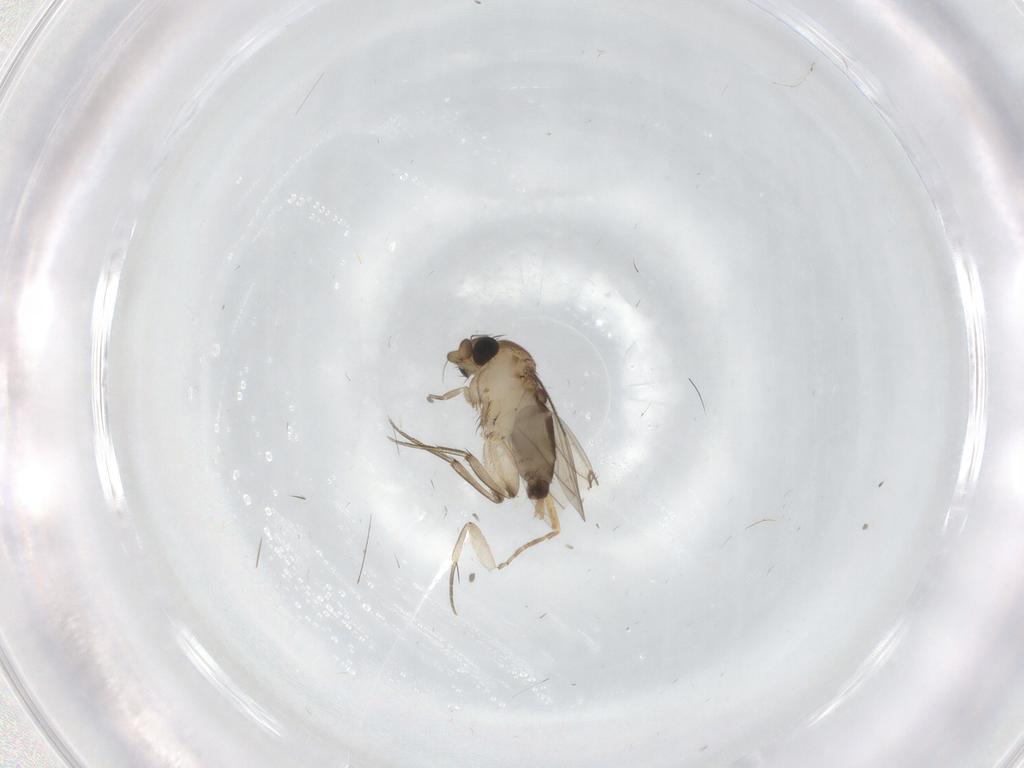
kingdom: Animalia
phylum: Arthropoda
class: Insecta
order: Diptera
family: Phoridae
